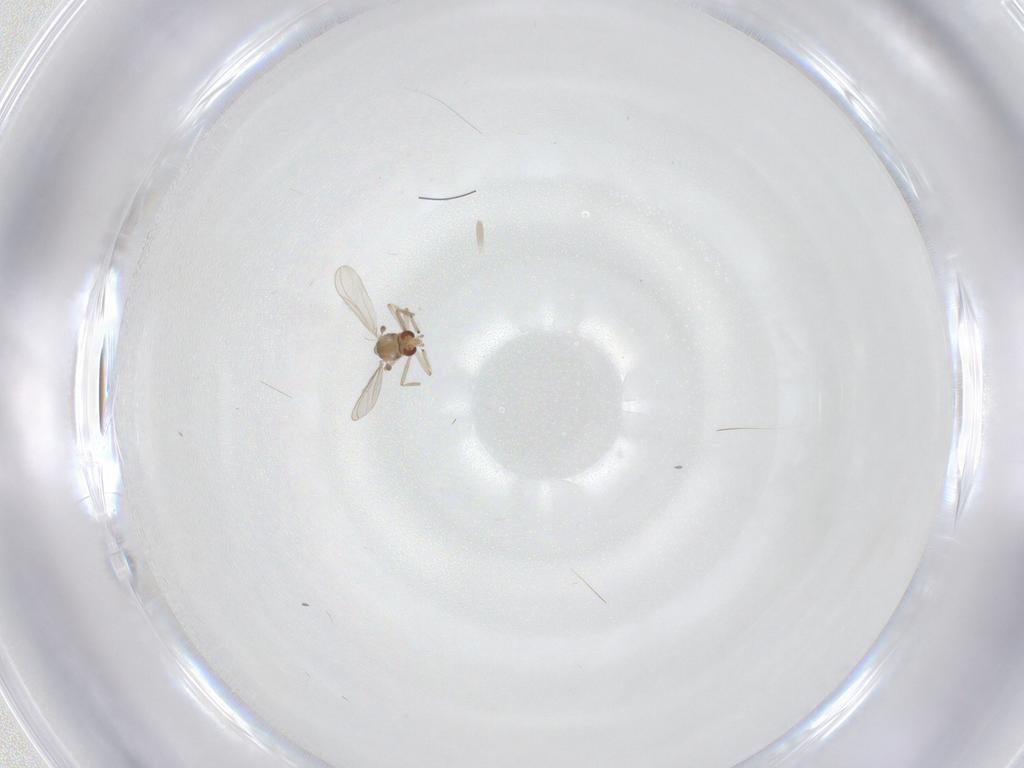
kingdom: Animalia
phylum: Arthropoda
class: Insecta
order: Diptera
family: Chironomidae
